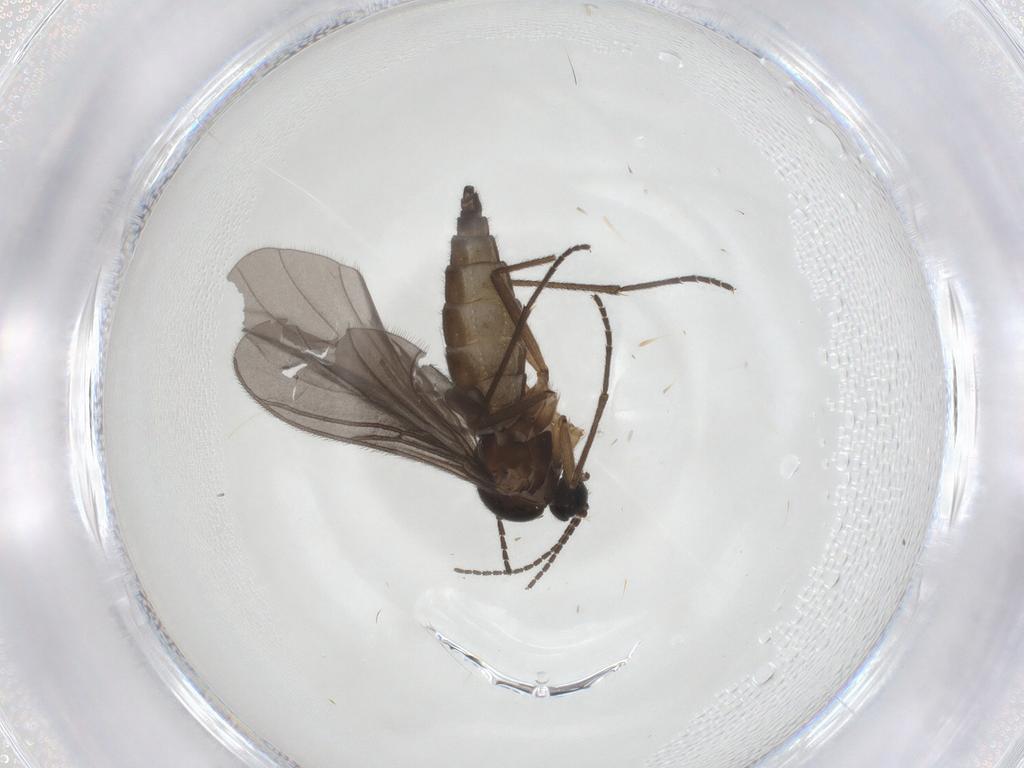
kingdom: Animalia
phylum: Arthropoda
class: Insecta
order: Diptera
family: Sciaridae
